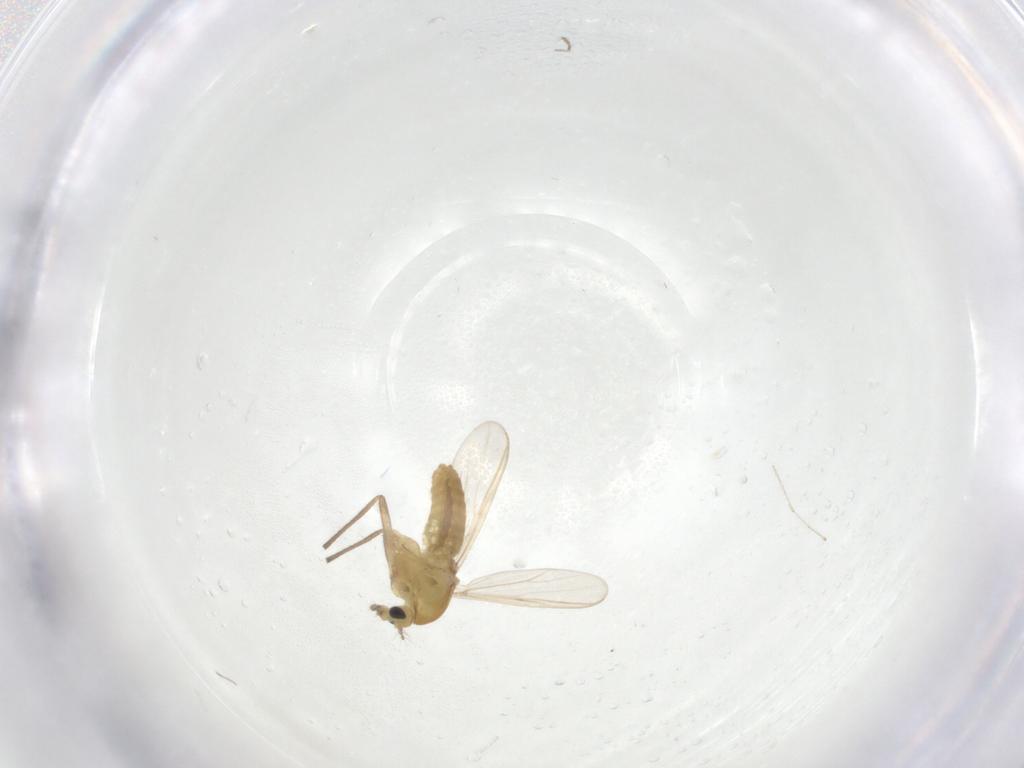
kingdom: Animalia
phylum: Arthropoda
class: Insecta
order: Diptera
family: Chironomidae
